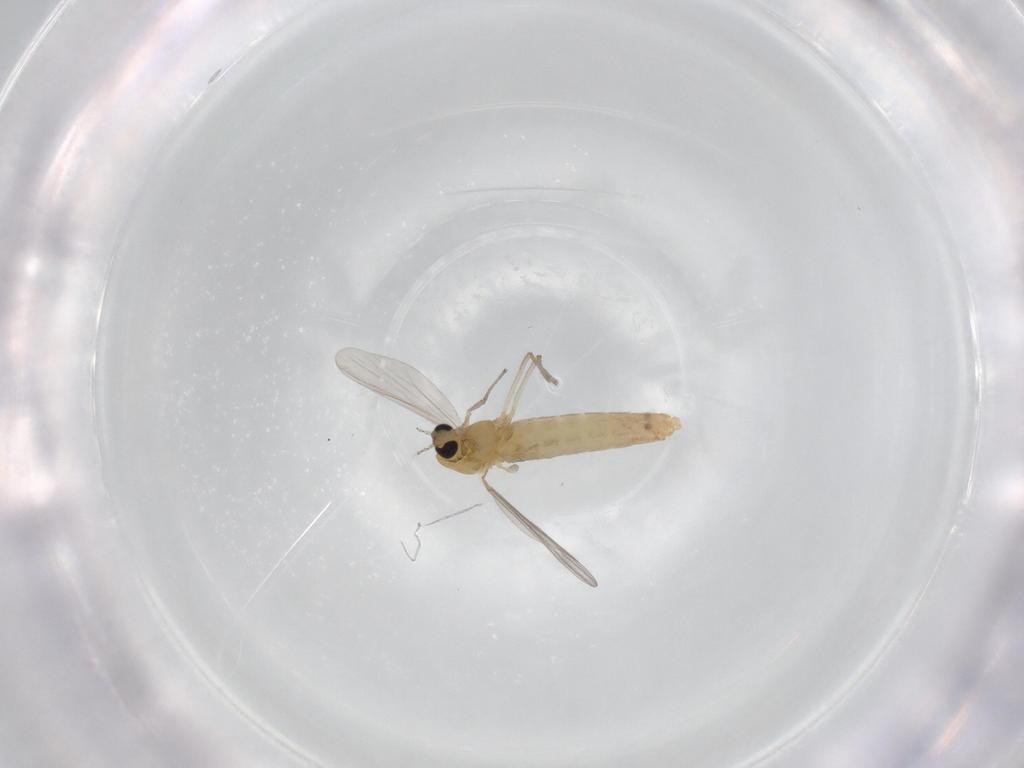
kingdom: Animalia
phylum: Arthropoda
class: Insecta
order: Diptera
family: Chironomidae
